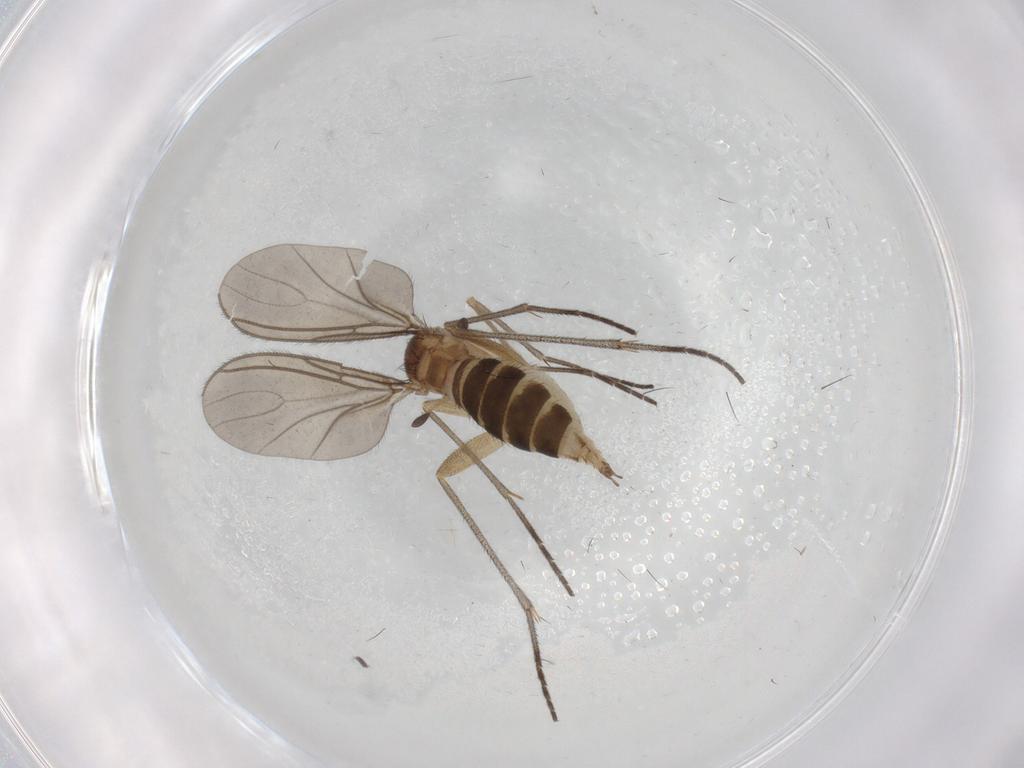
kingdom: Animalia
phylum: Arthropoda
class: Insecta
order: Diptera
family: Sciaridae
